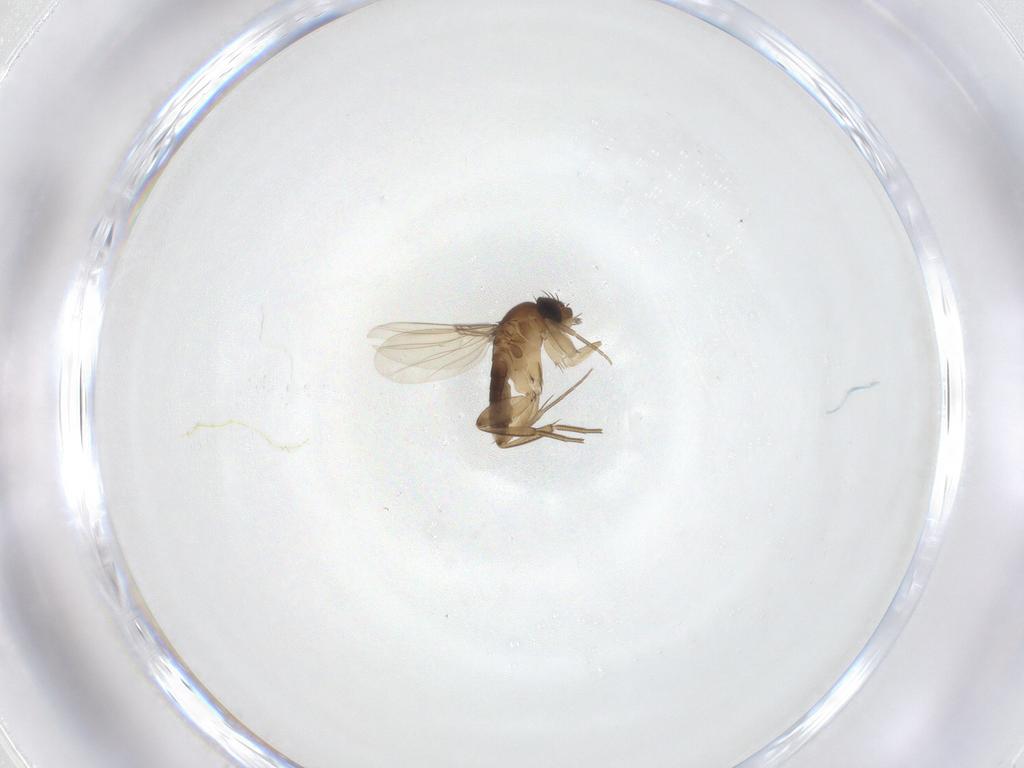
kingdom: Animalia
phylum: Arthropoda
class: Insecta
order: Diptera
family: Phoridae
